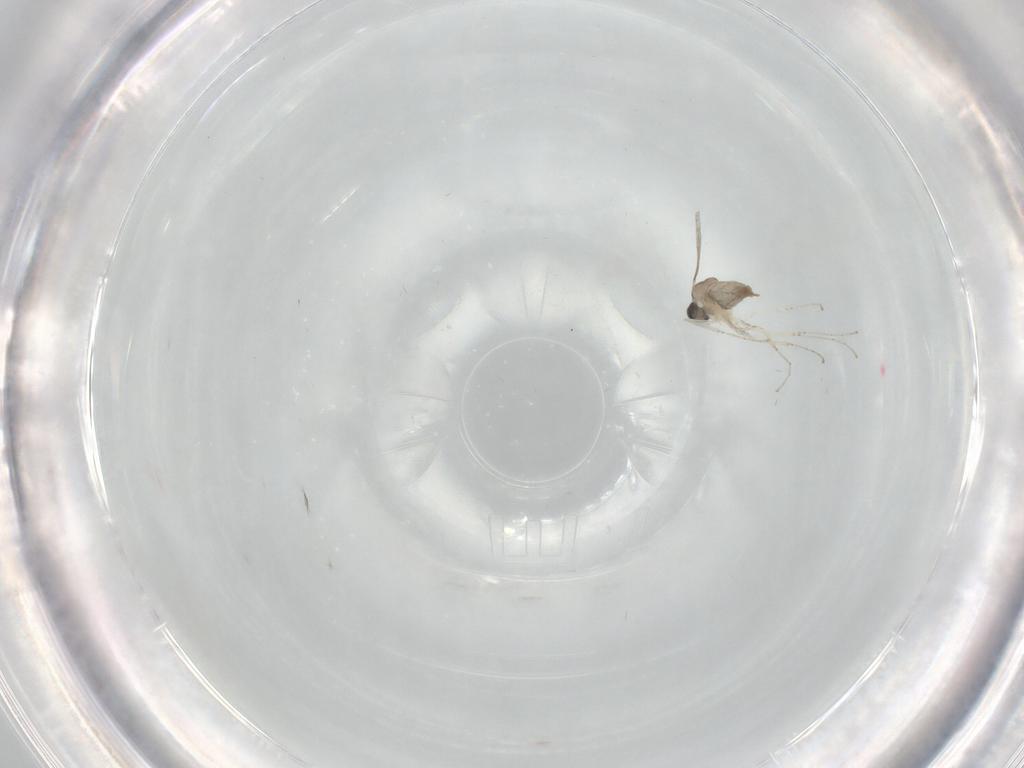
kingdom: Animalia
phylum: Arthropoda
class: Insecta
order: Diptera
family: Cecidomyiidae
